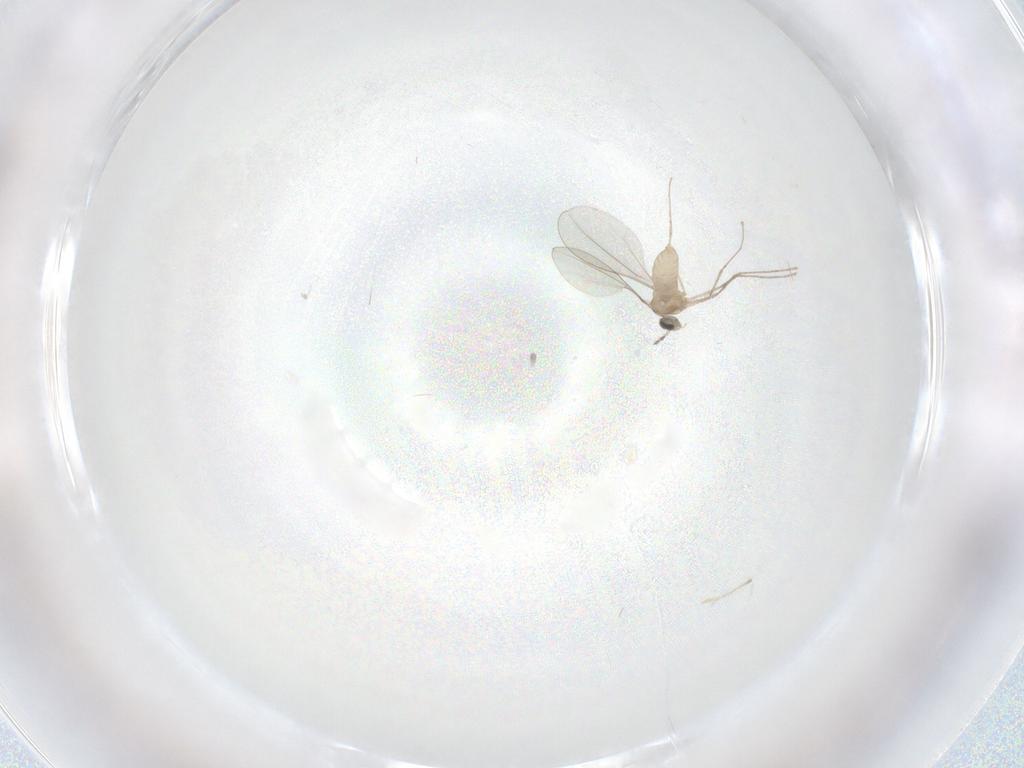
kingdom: Animalia
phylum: Arthropoda
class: Insecta
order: Diptera
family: Cecidomyiidae
